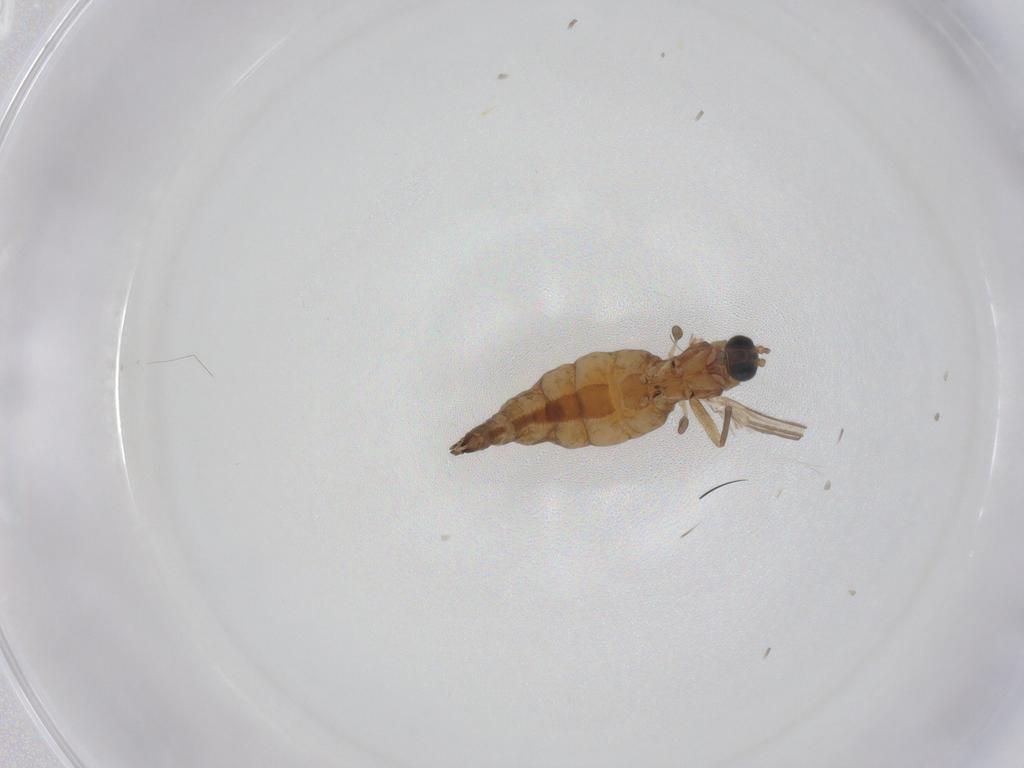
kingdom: Animalia
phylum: Arthropoda
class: Insecta
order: Diptera
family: Sciaridae
